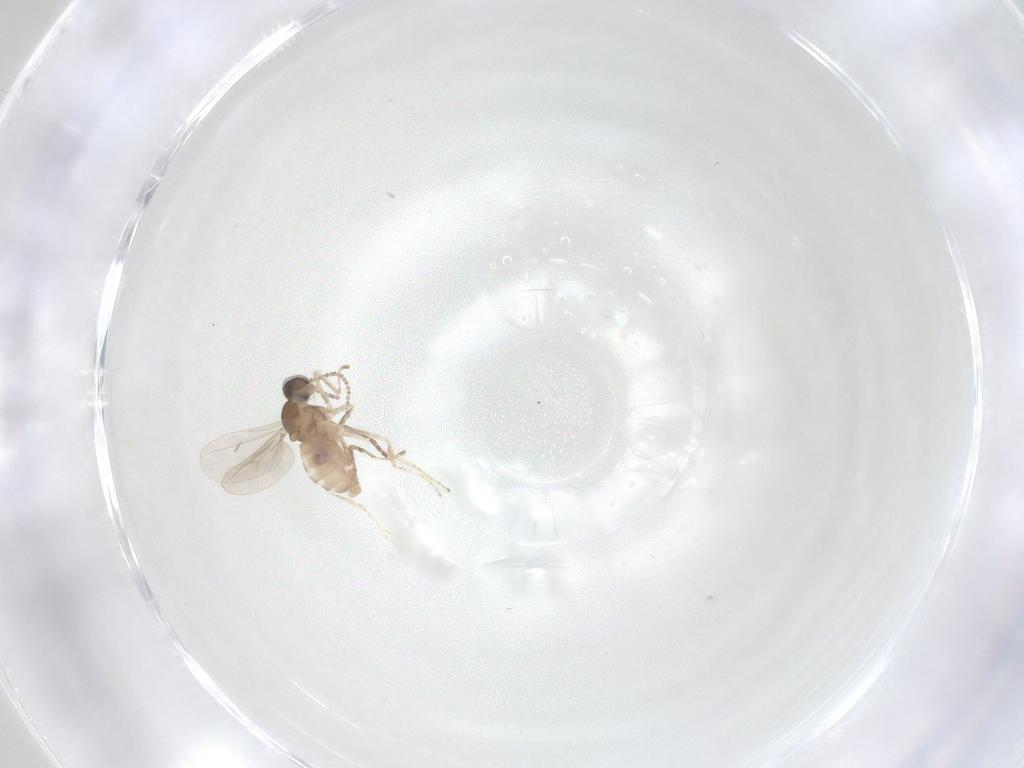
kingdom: Animalia
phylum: Arthropoda
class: Insecta
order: Diptera
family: Cecidomyiidae
